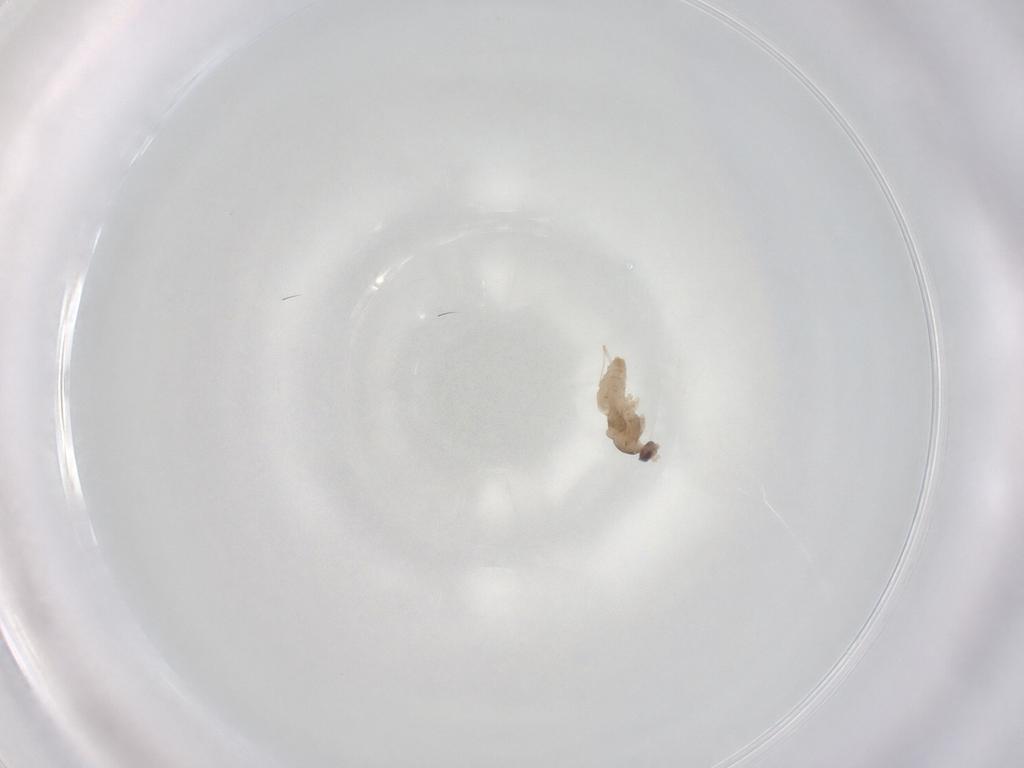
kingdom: Animalia
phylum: Arthropoda
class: Insecta
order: Diptera
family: Cecidomyiidae
